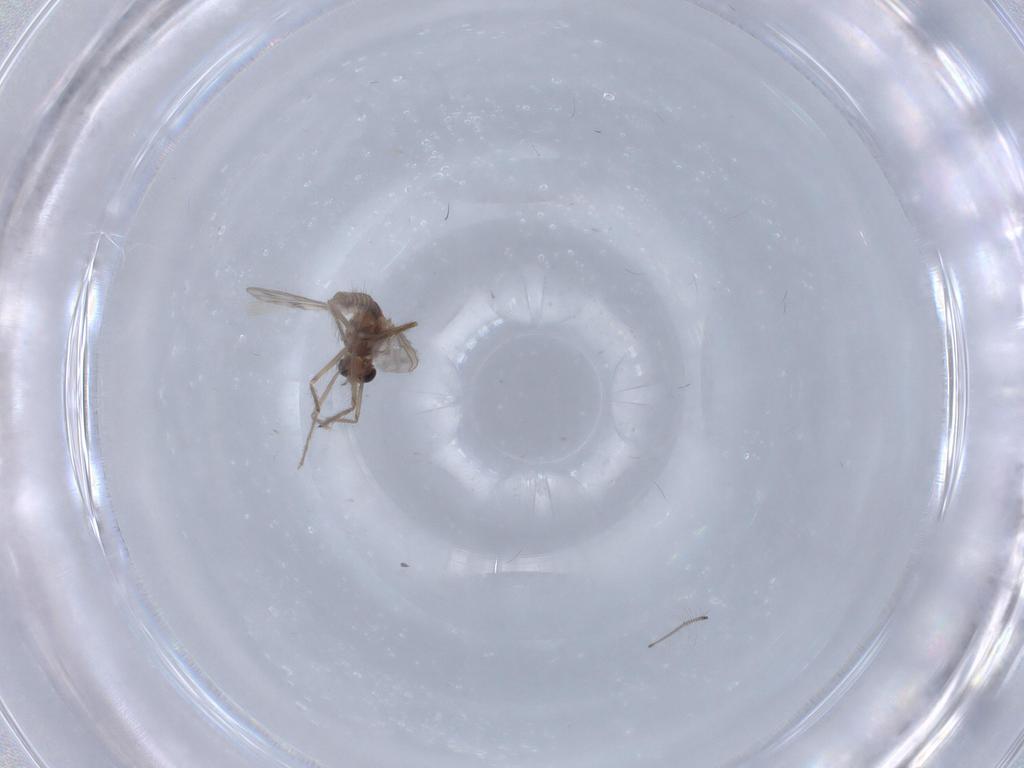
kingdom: Animalia
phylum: Arthropoda
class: Insecta
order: Diptera
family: Chironomidae
